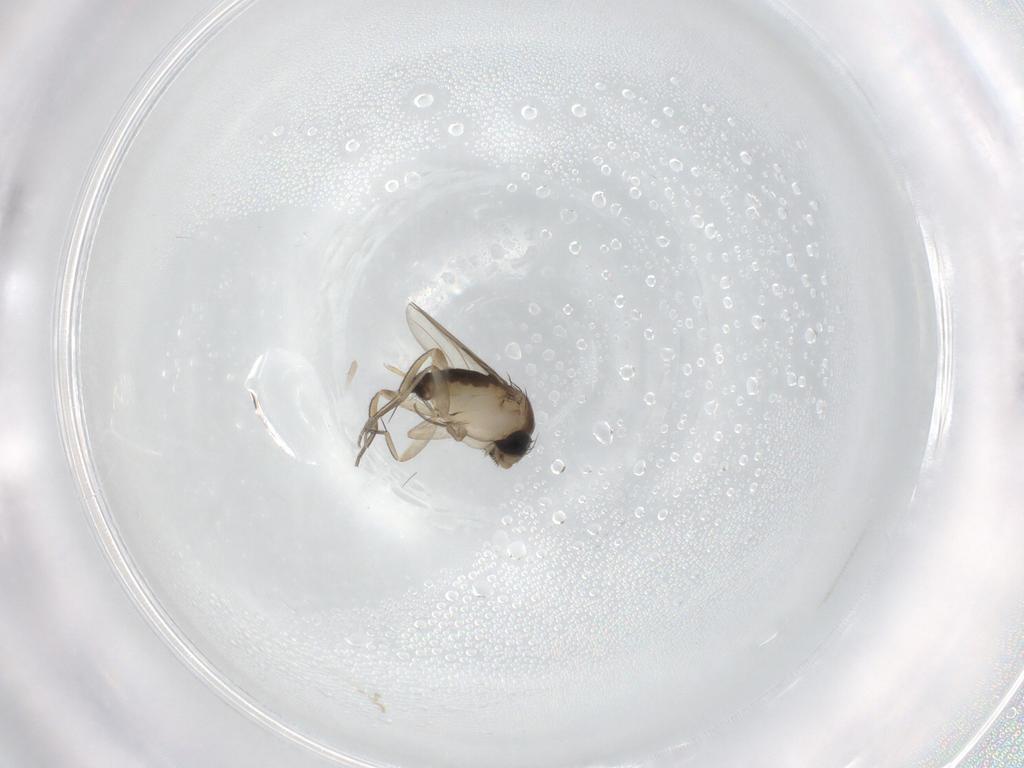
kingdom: Animalia
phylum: Arthropoda
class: Insecta
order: Diptera
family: Phoridae
